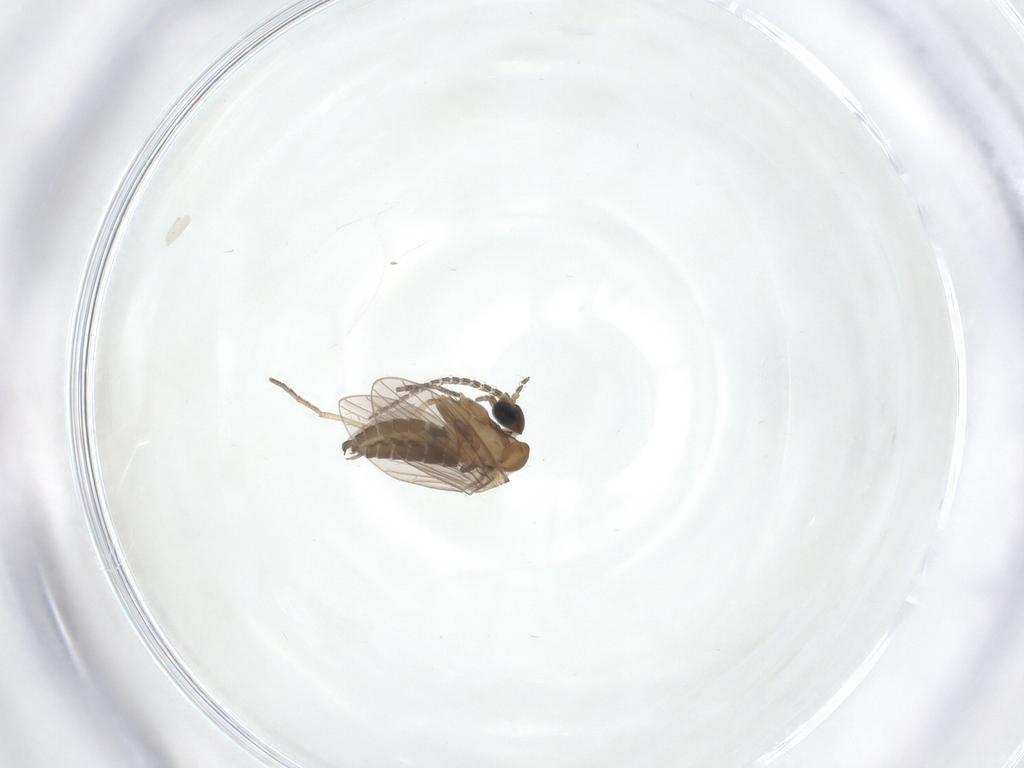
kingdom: Animalia
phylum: Arthropoda
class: Insecta
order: Diptera
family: Limoniidae
